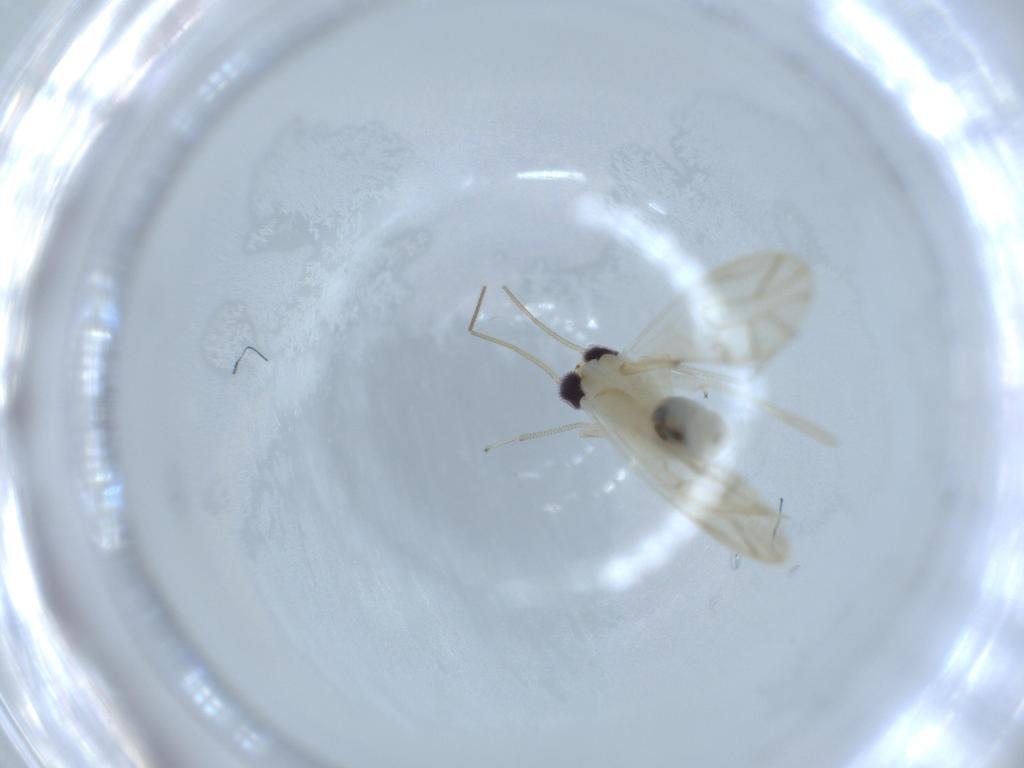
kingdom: Animalia
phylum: Arthropoda
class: Insecta
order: Psocodea
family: Caeciliusidae
